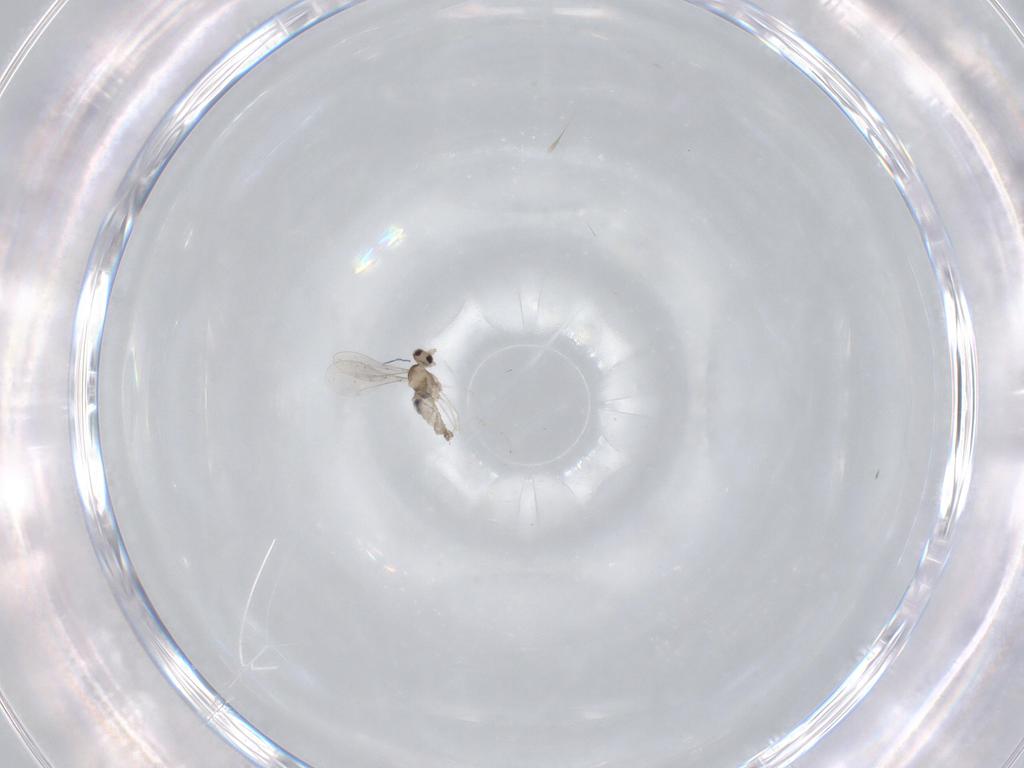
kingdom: Animalia
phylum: Arthropoda
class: Insecta
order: Diptera
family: Cecidomyiidae
